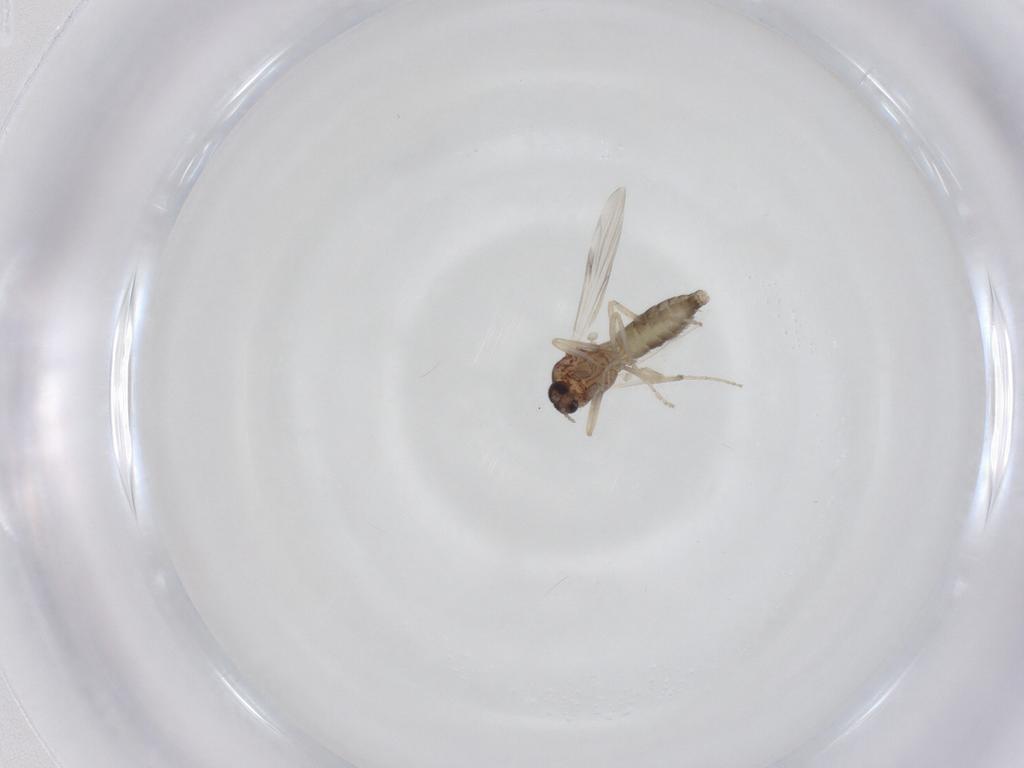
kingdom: Animalia
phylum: Arthropoda
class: Insecta
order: Diptera
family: Ceratopogonidae
